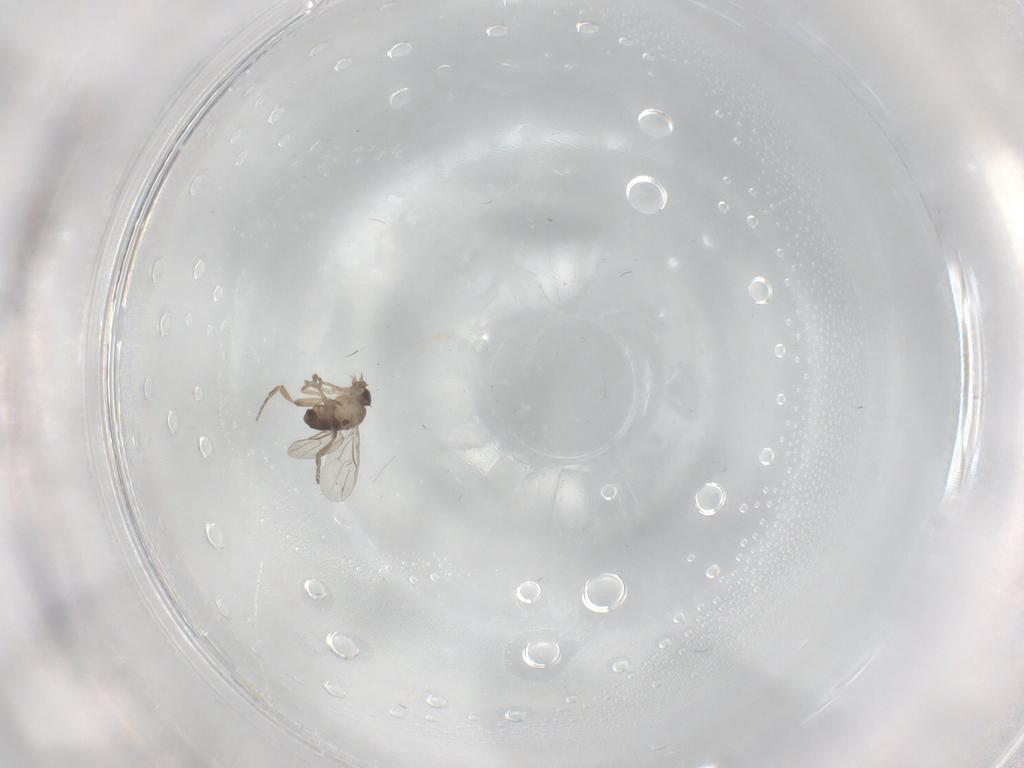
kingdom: Animalia
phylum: Arthropoda
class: Insecta
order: Diptera
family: Phoridae
